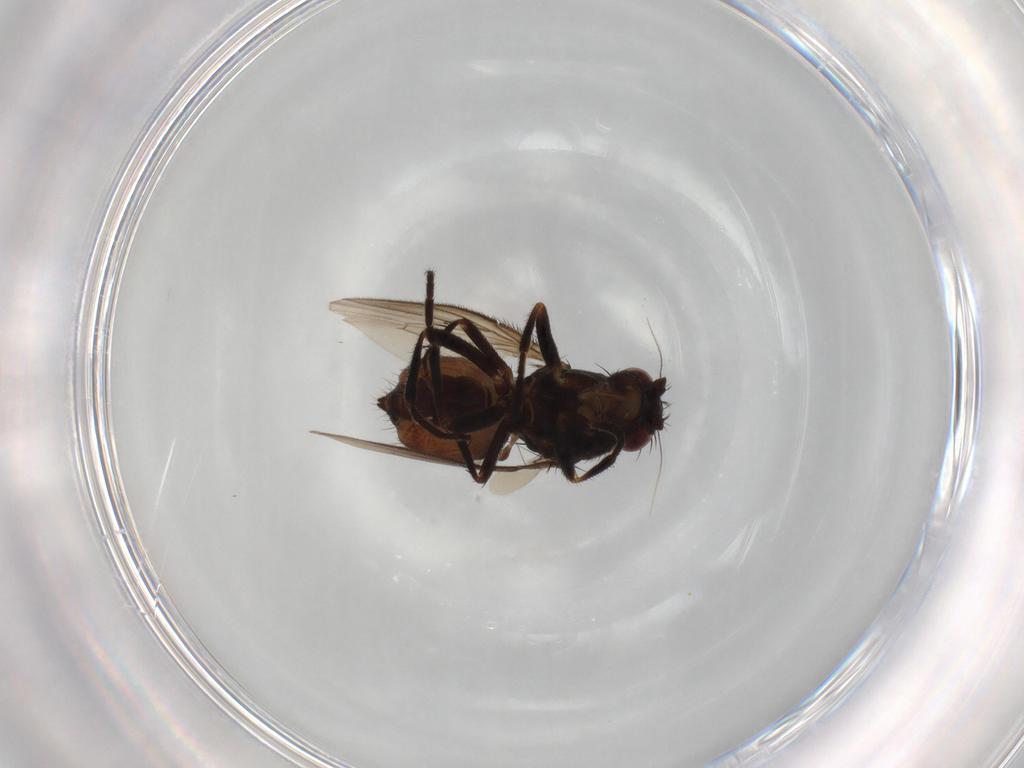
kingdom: Animalia
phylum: Arthropoda
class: Insecta
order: Diptera
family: Sphaeroceridae
